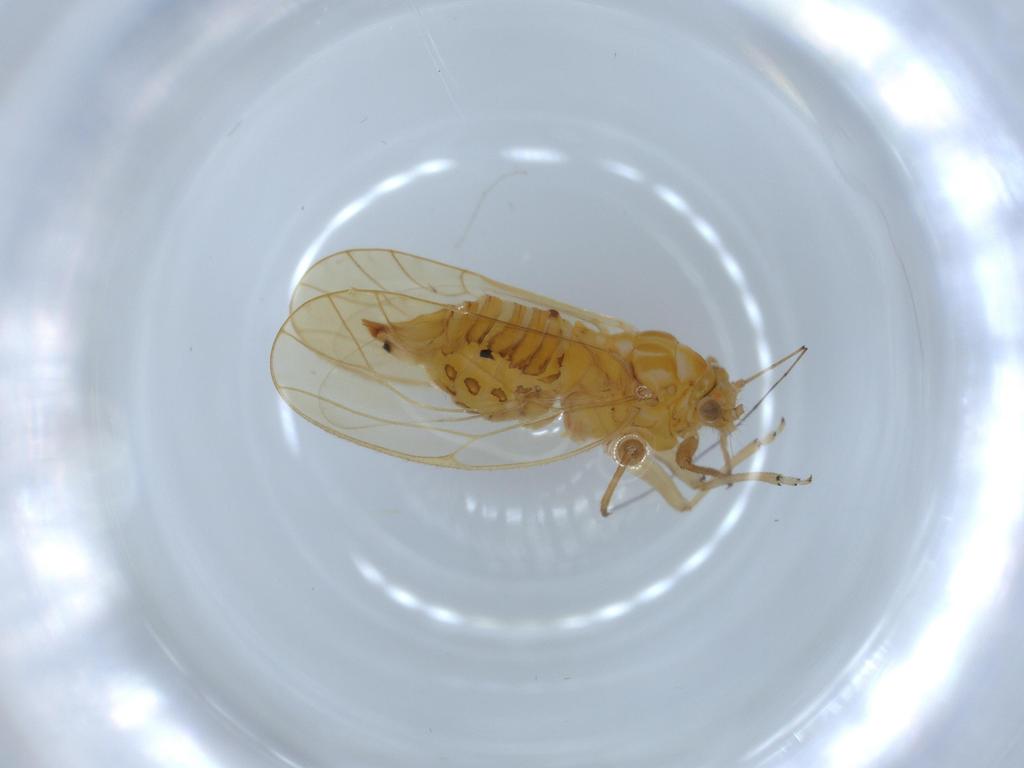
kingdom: Animalia
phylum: Arthropoda
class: Insecta
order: Hemiptera
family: Psyllidae
